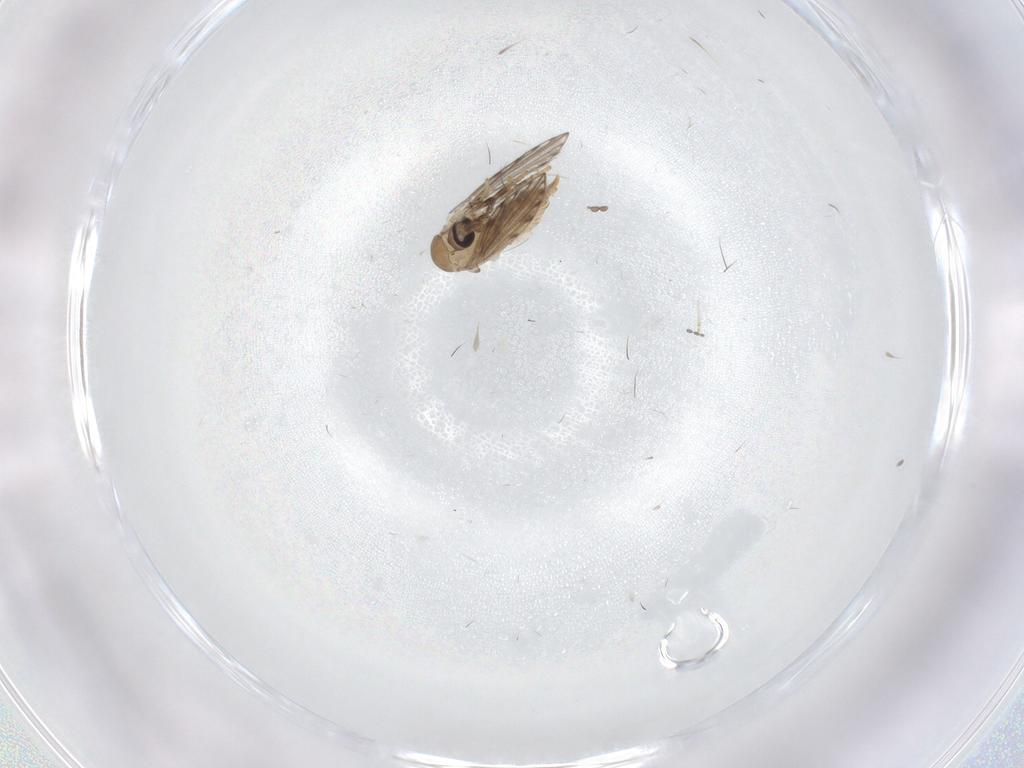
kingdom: Animalia
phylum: Arthropoda
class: Insecta
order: Diptera
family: Psychodidae
